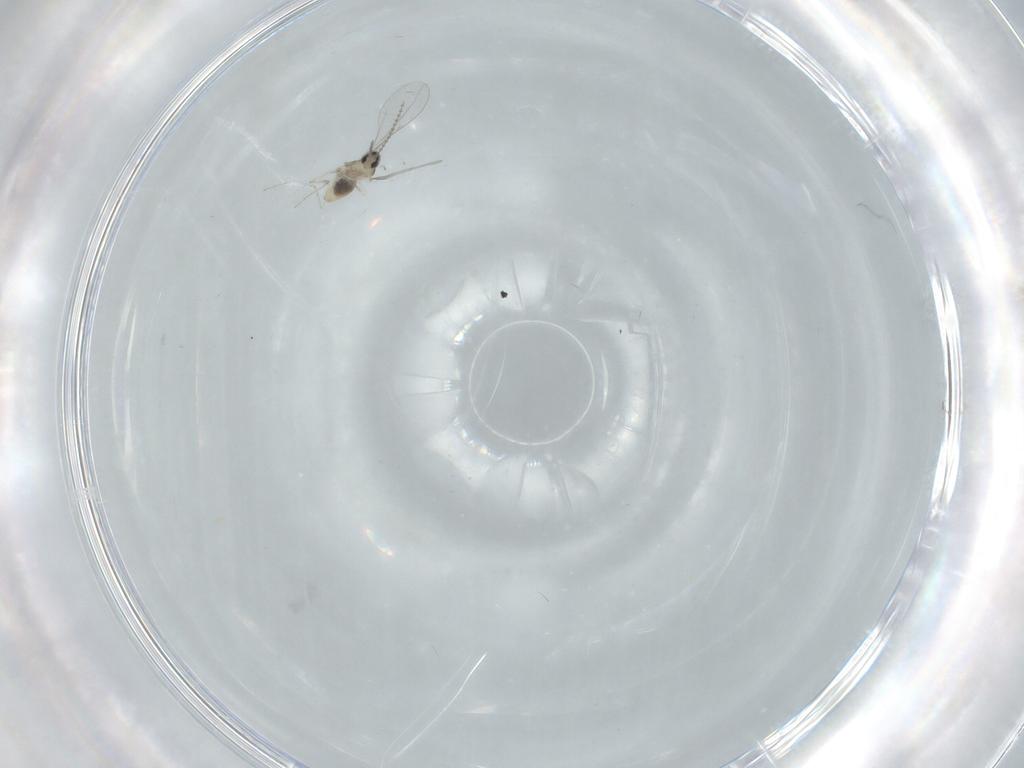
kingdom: Animalia
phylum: Arthropoda
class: Insecta
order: Diptera
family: Cecidomyiidae
